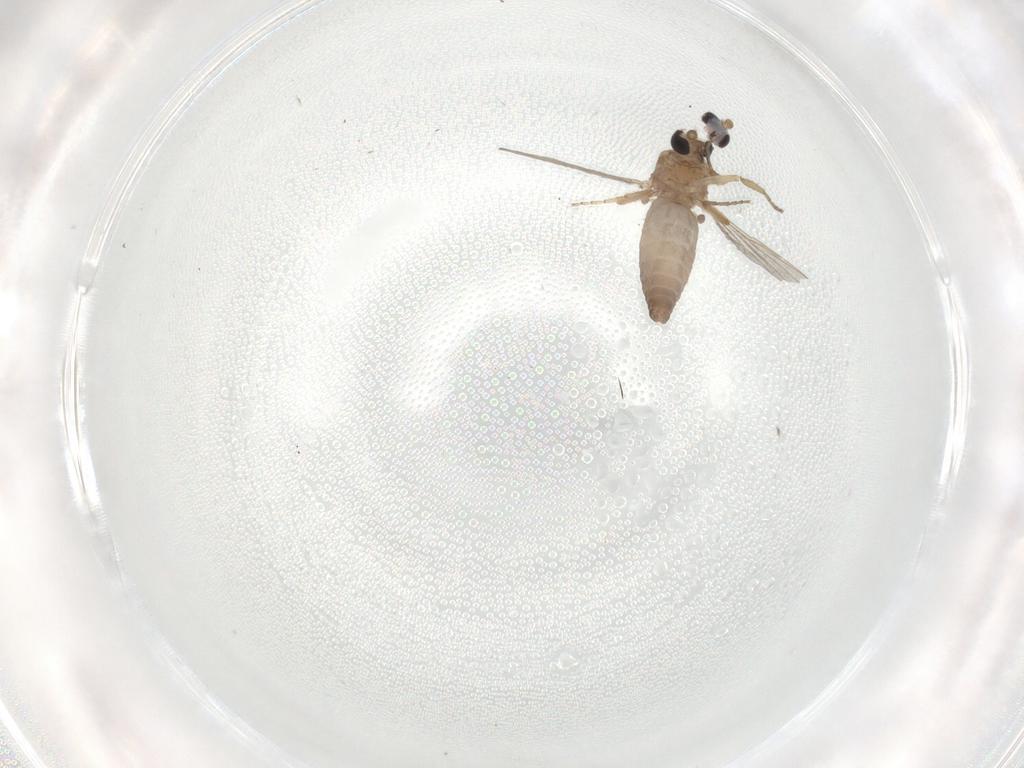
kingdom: Animalia
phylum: Arthropoda
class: Insecta
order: Diptera
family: Ceratopogonidae
